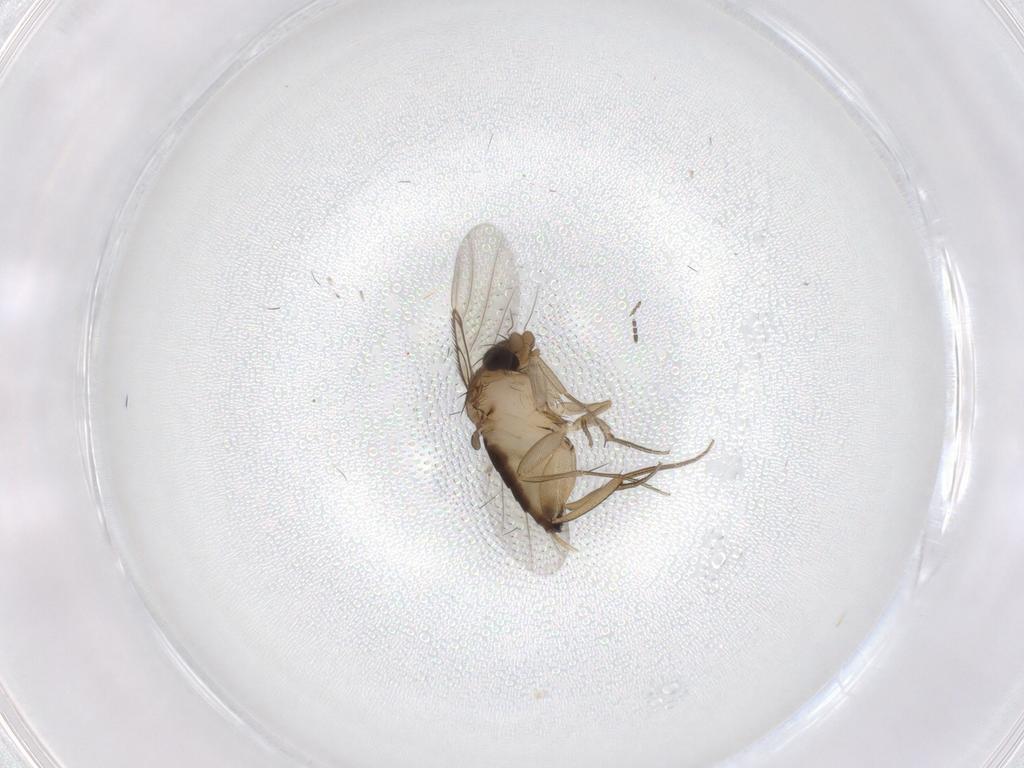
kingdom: Animalia
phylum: Arthropoda
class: Insecta
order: Diptera
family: Phoridae
